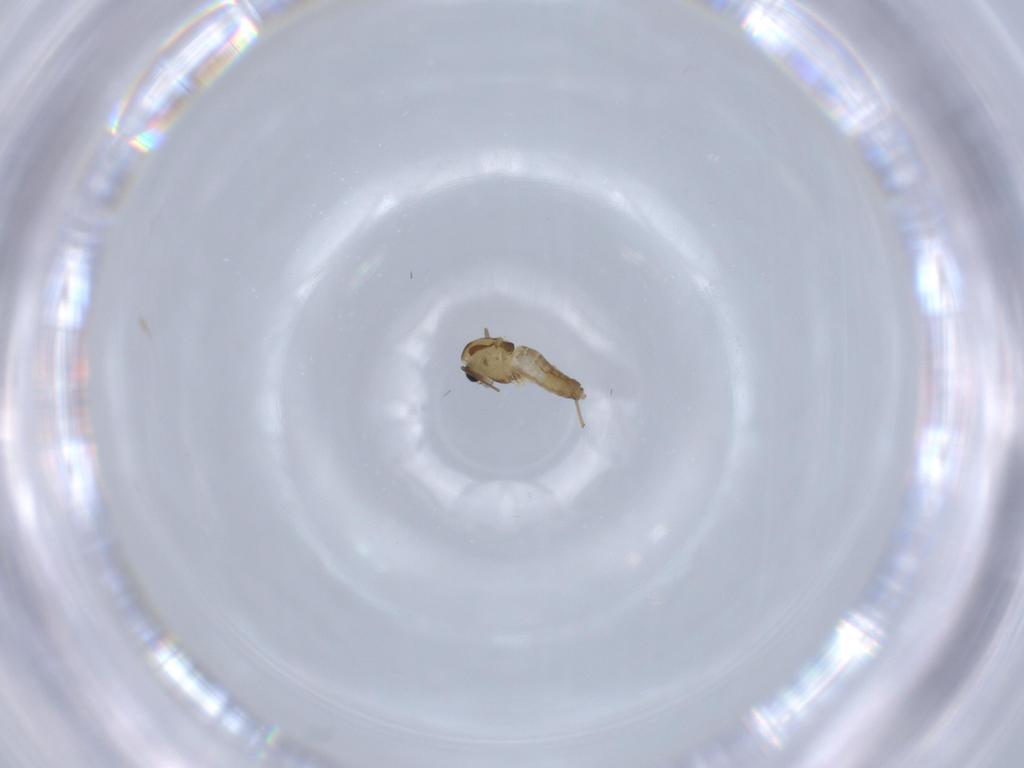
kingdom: Animalia
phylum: Arthropoda
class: Insecta
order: Diptera
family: Chironomidae
